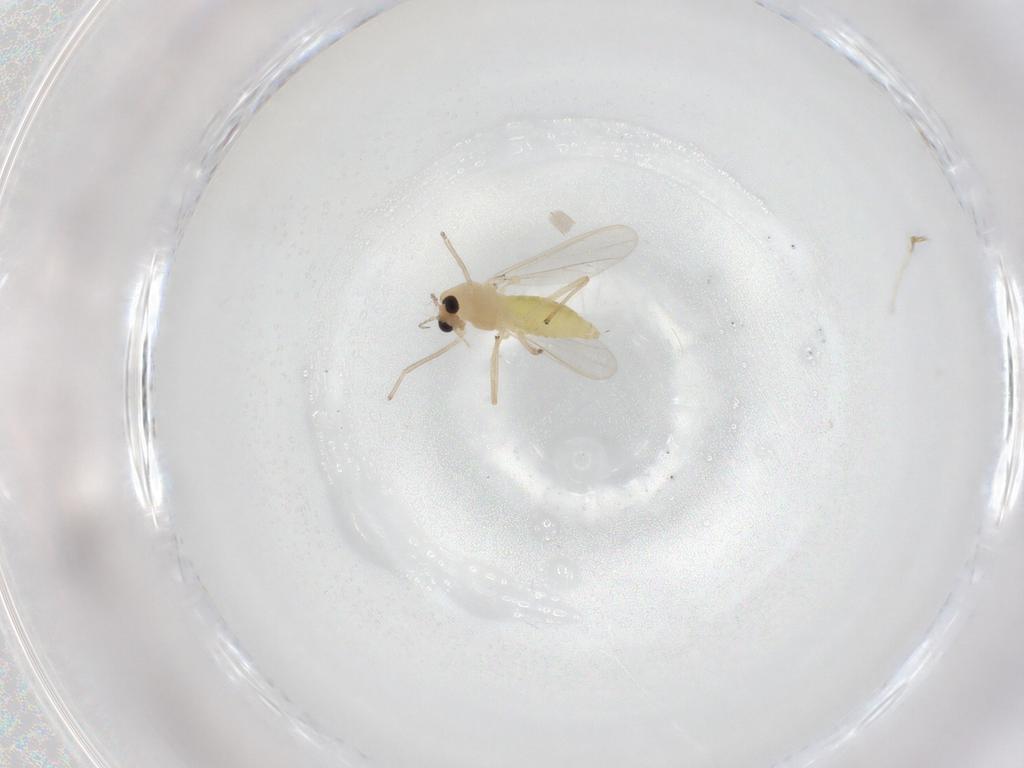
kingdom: Animalia
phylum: Arthropoda
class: Insecta
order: Diptera
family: Chironomidae
